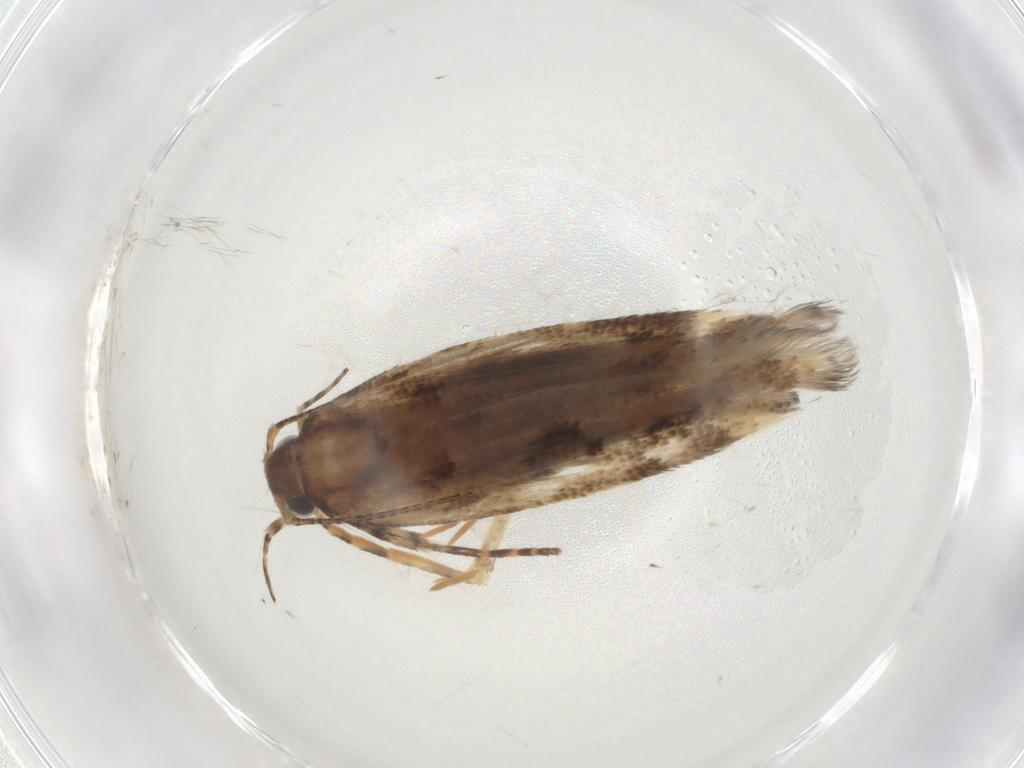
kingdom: Animalia
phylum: Arthropoda
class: Insecta
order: Lepidoptera
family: Gelechiidae
